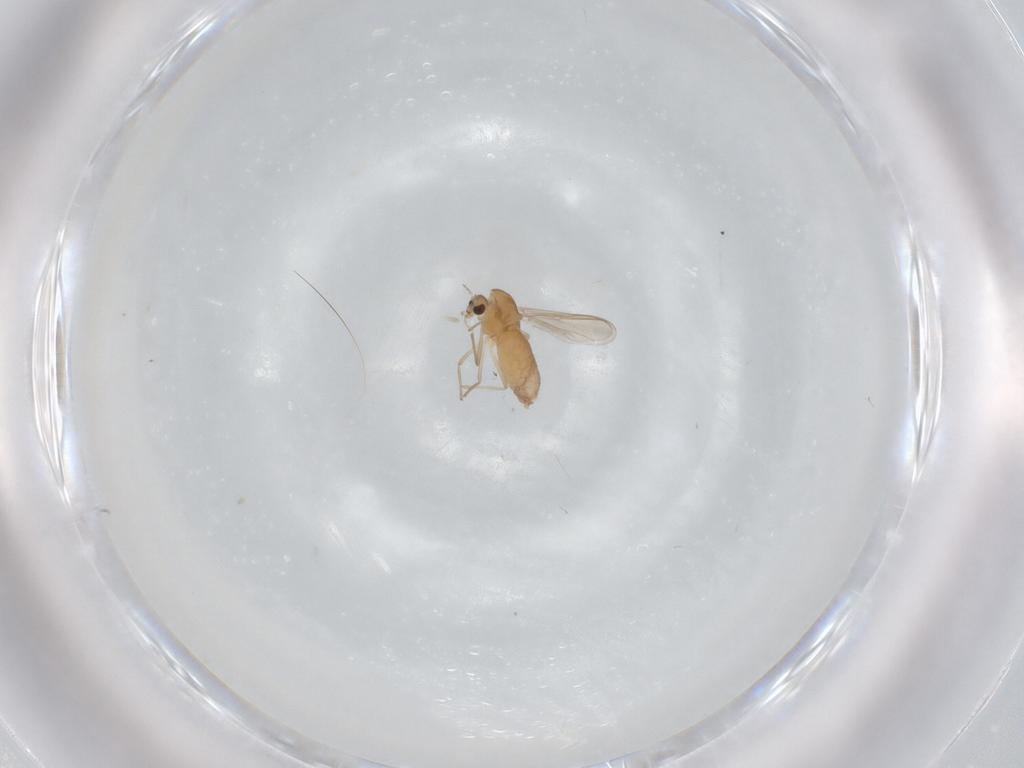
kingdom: Animalia
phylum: Arthropoda
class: Insecta
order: Diptera
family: Chironomidae
